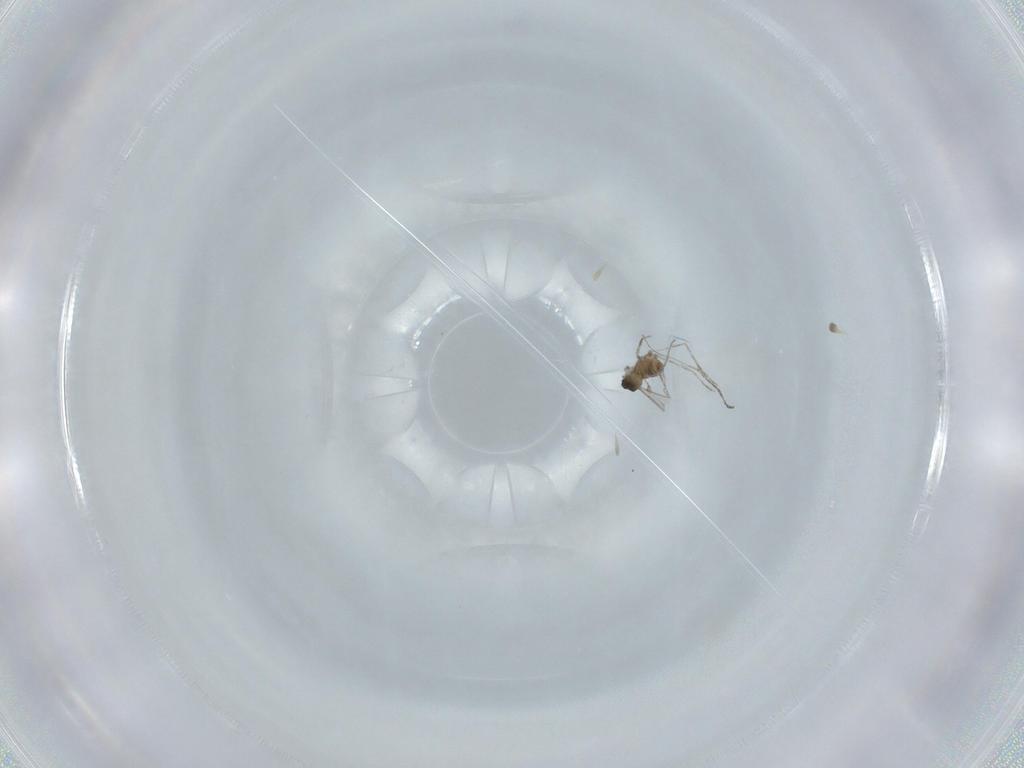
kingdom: Animalia
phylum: Arthropoda
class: Insecta
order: Diptera
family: Cecidomyiidae
